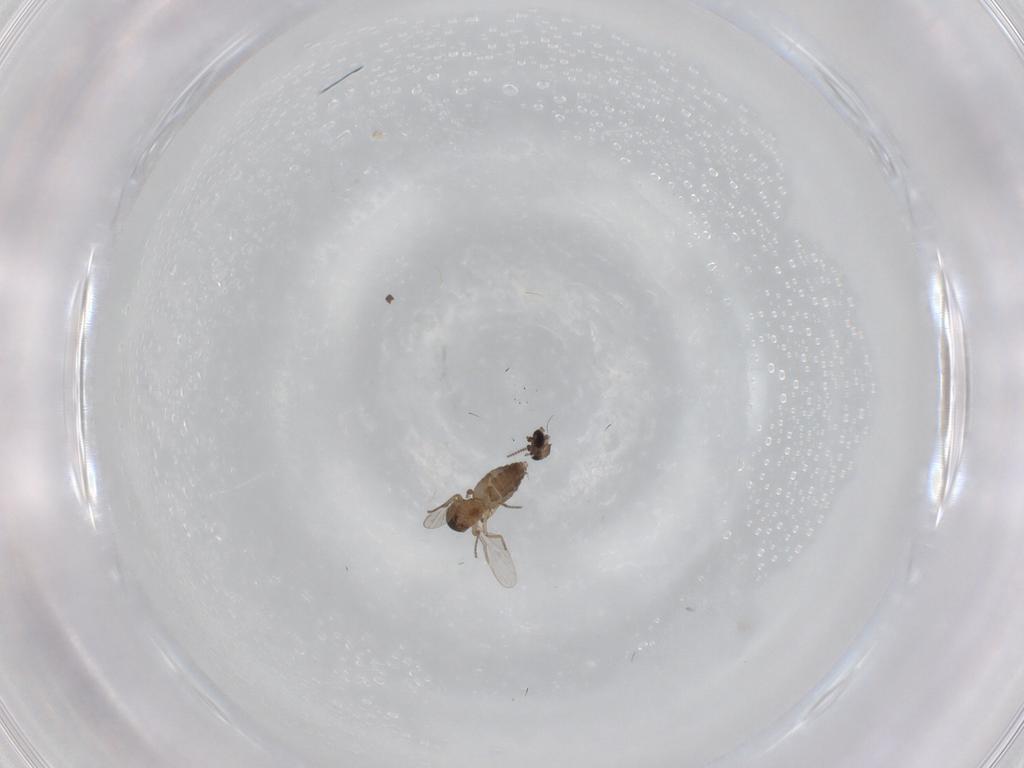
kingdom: Animalia
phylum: Arthropoda
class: Insecta
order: Diptera
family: Ceratopogonidae
